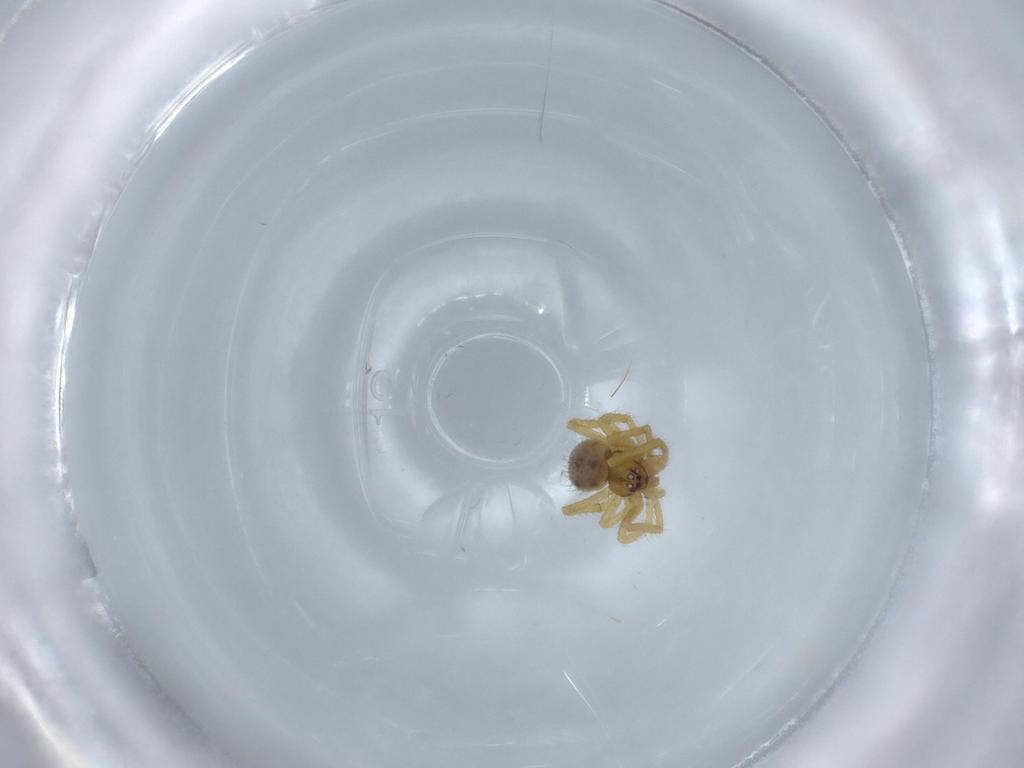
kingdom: Animalia
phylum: Arthropoda
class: Arachnida
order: Araneae
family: Theridiidae
